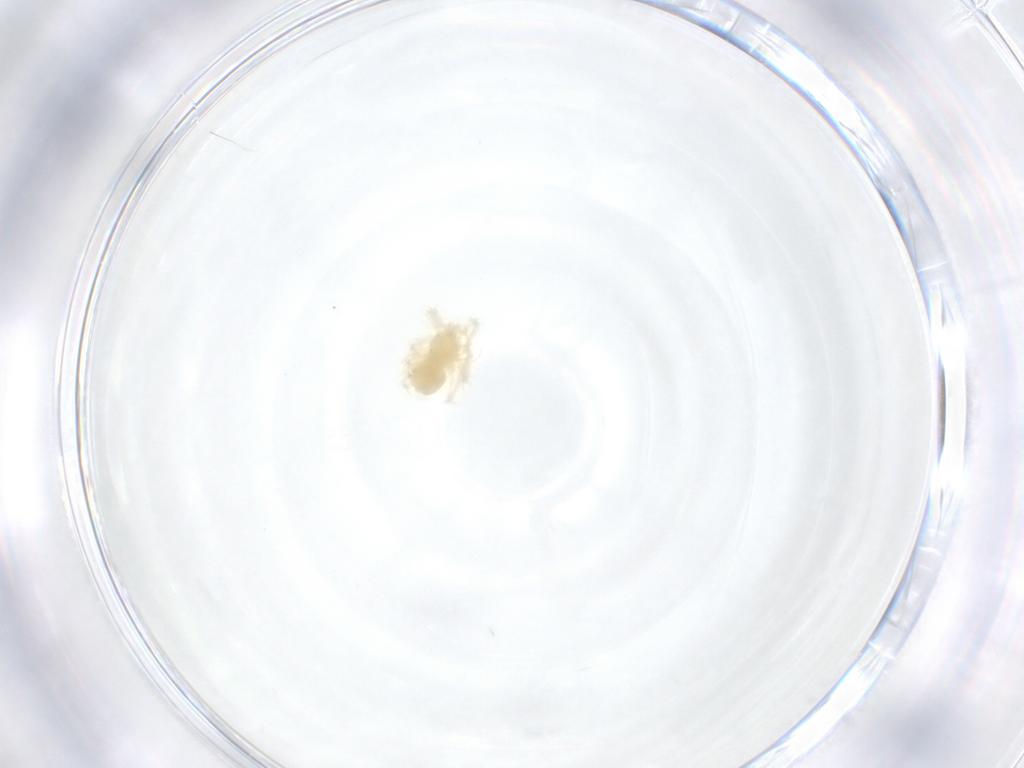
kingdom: Animalia
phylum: Arthropoda
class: Arachnida
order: Trombidiformes
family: Anystidae
